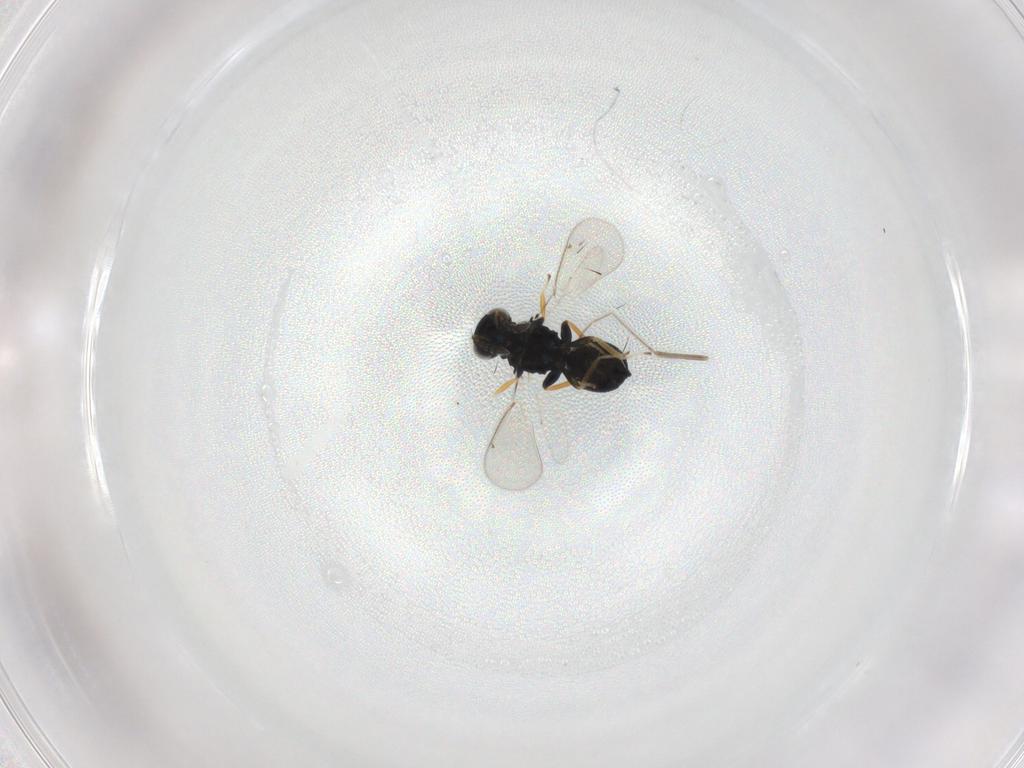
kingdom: Animalia
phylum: Arthropoda
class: Insecta
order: Hymenoptera
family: Eulophidae
